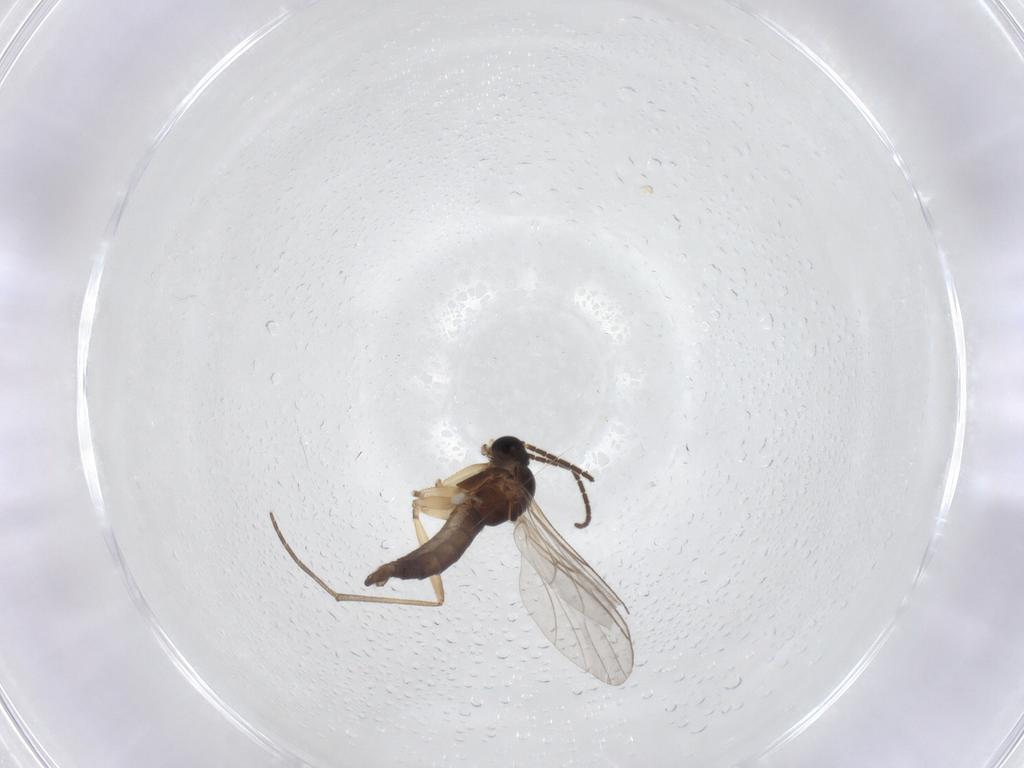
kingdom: Animalia
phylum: Arthropoda
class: Insecta
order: Diptera
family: Sciaridae
